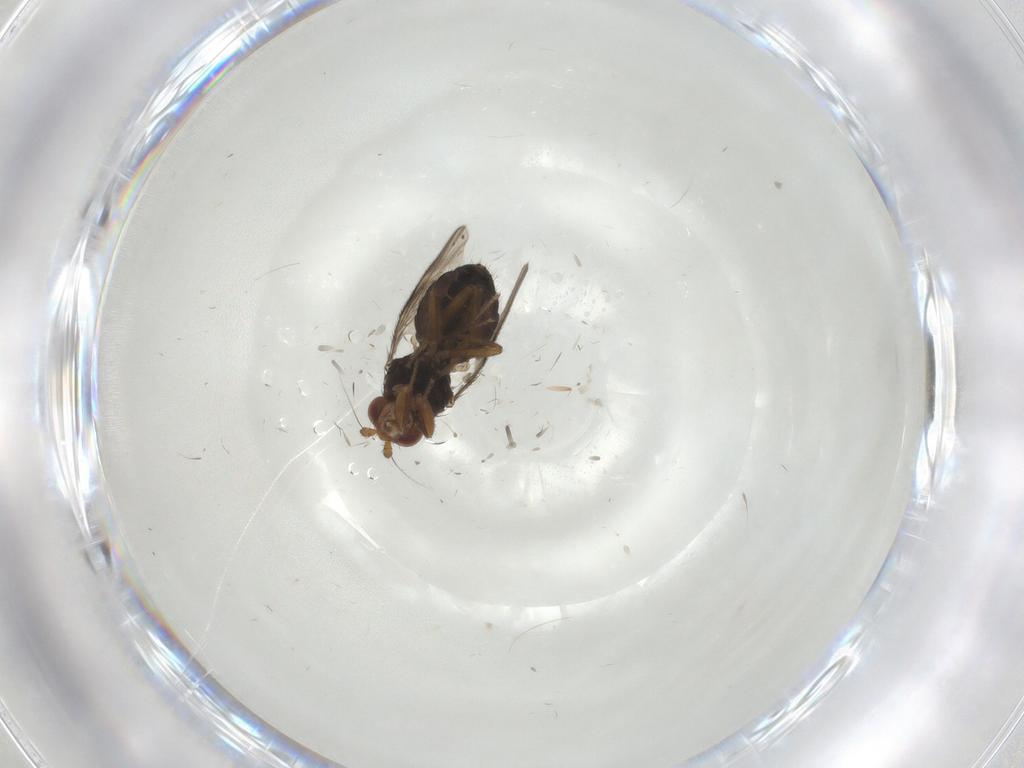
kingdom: Animalia
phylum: Arthropoda
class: Insecta
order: Diptera
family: Sphaeroceridae
